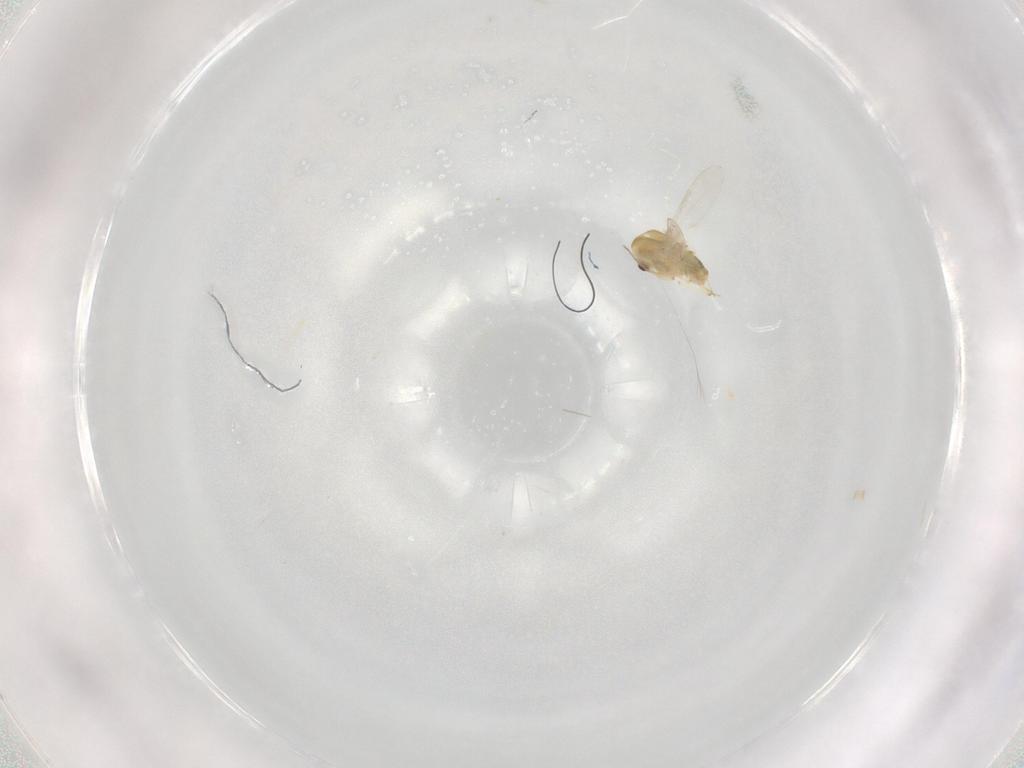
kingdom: Animalia
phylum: Arthropoda
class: Insecta
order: Diptera
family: Chironomidae
